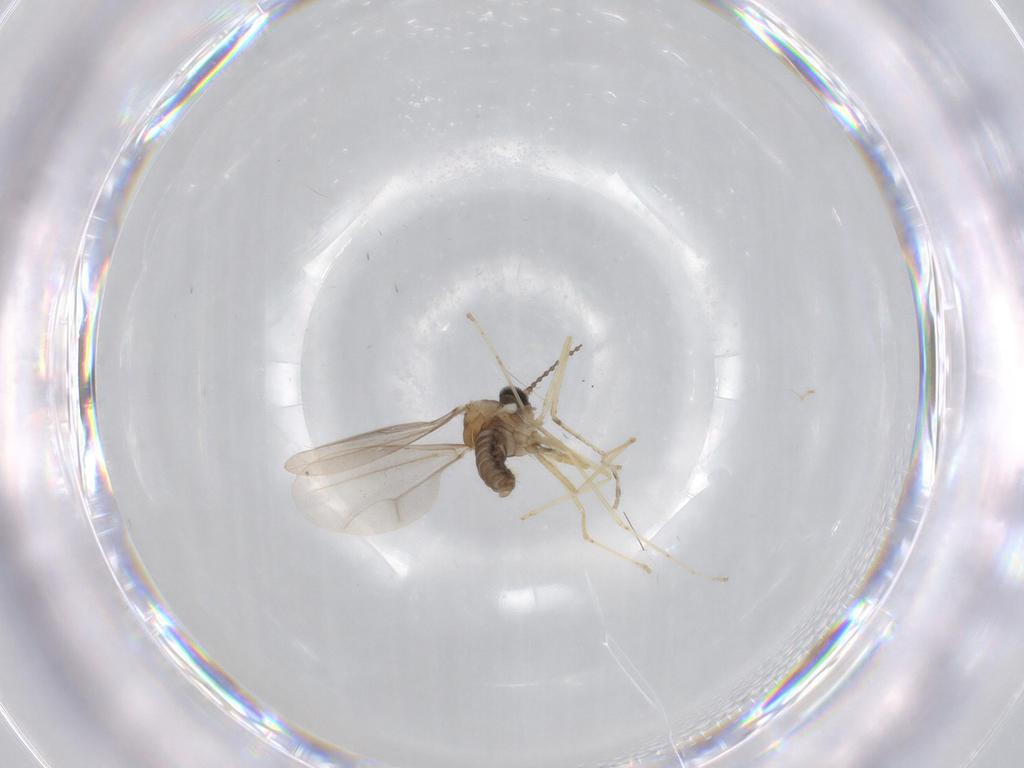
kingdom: Animalia
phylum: Arthropoda
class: Insecta
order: Diptera
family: Cecidomyiidae
